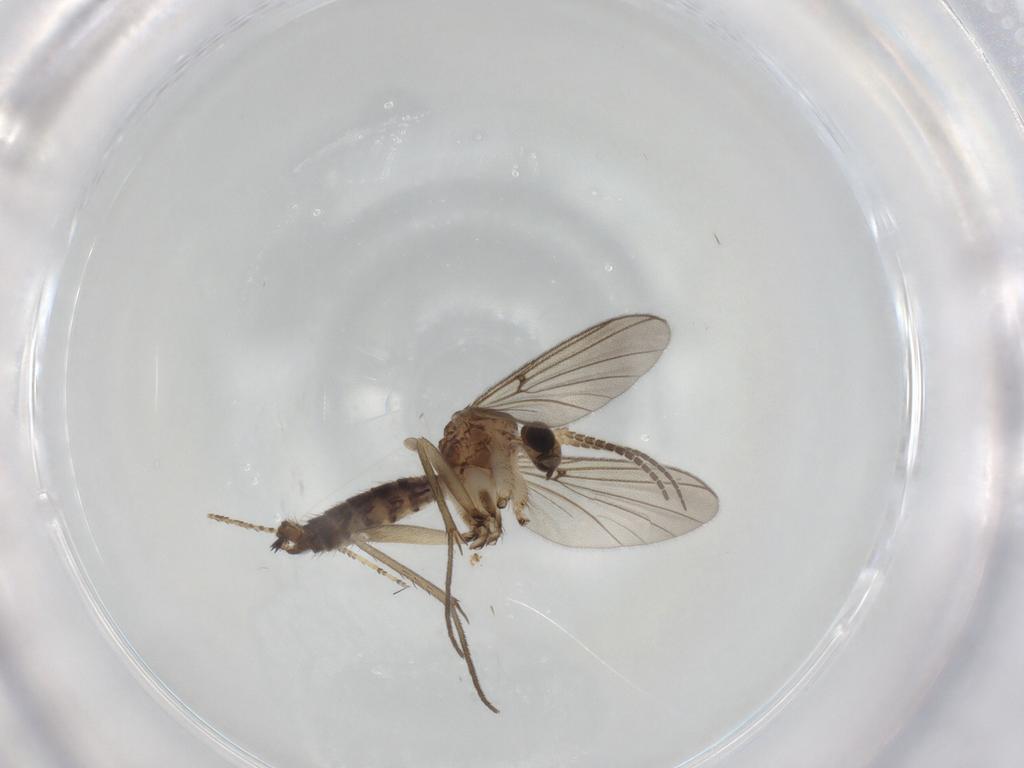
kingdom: Animalia
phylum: Arthropoda
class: Insecta
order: Diptera
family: Mycetophilidae
